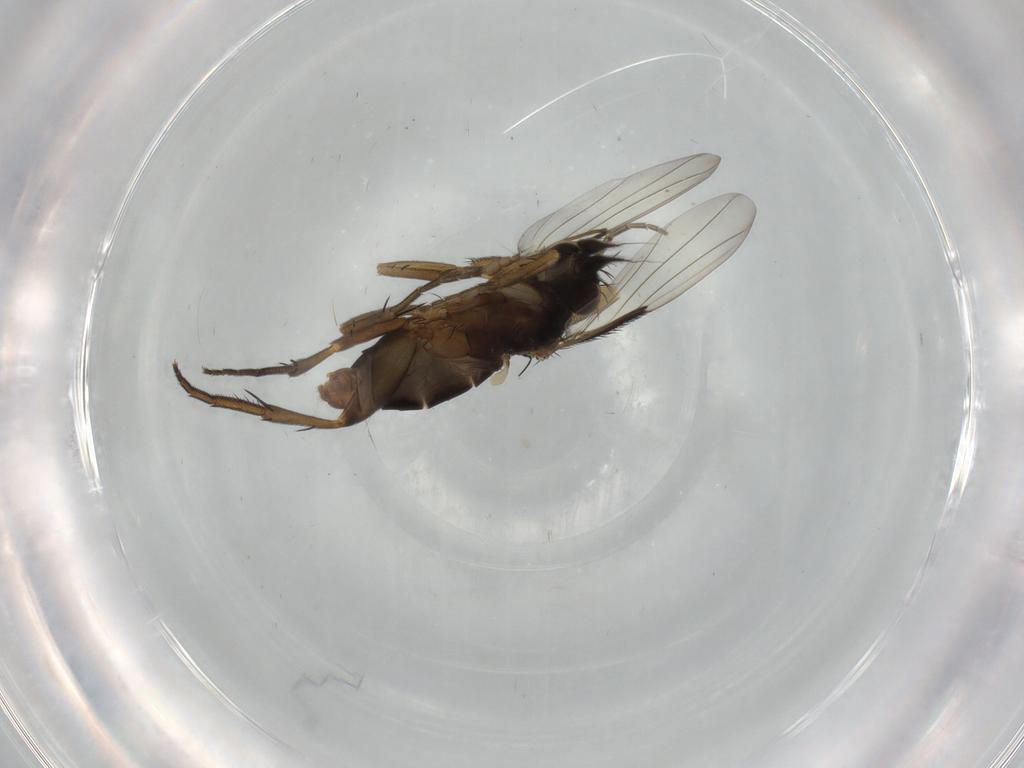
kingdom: Animalia
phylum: Arthropoda
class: Insecta
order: Diptera
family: Phoridae
